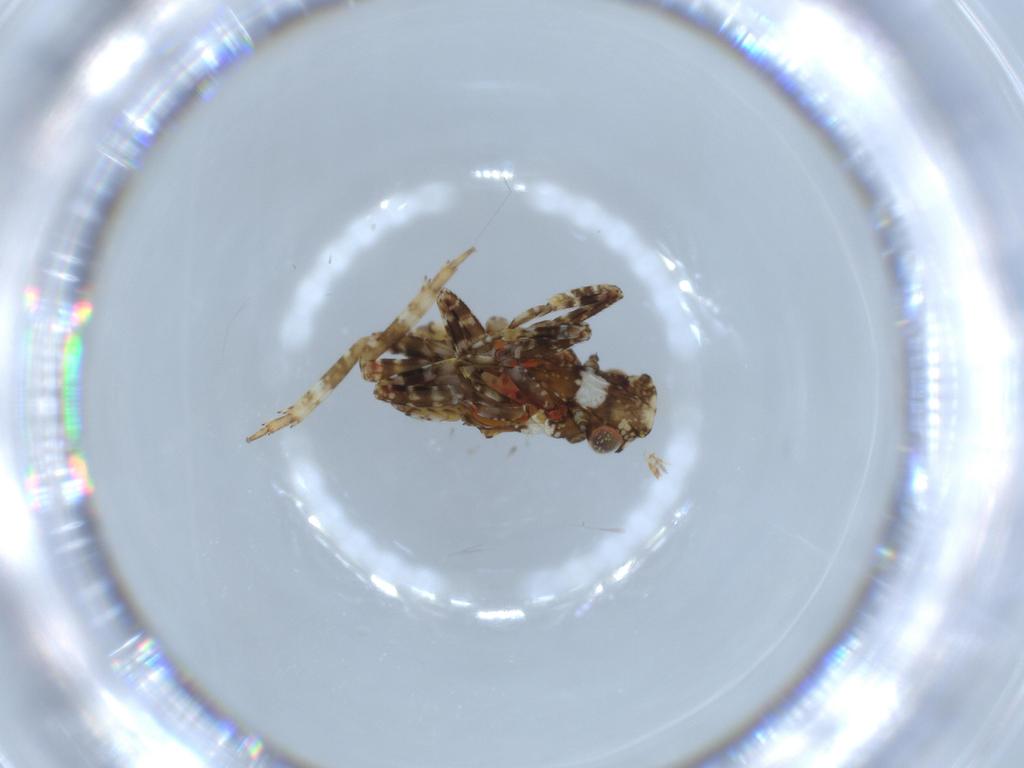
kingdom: Animalia
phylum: Arthropoda
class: Insecta
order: Hemiptera
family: Fulgoridae
